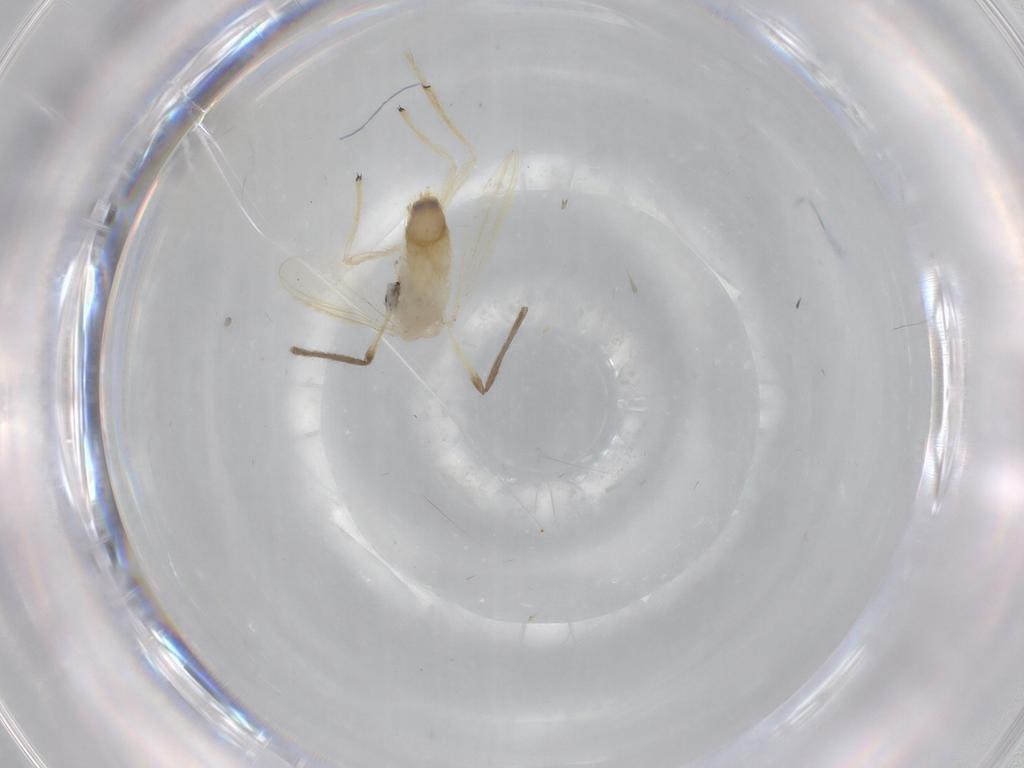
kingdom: Animalia
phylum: Arthropoda
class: Insecta
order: Diptera
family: Chironomidae
